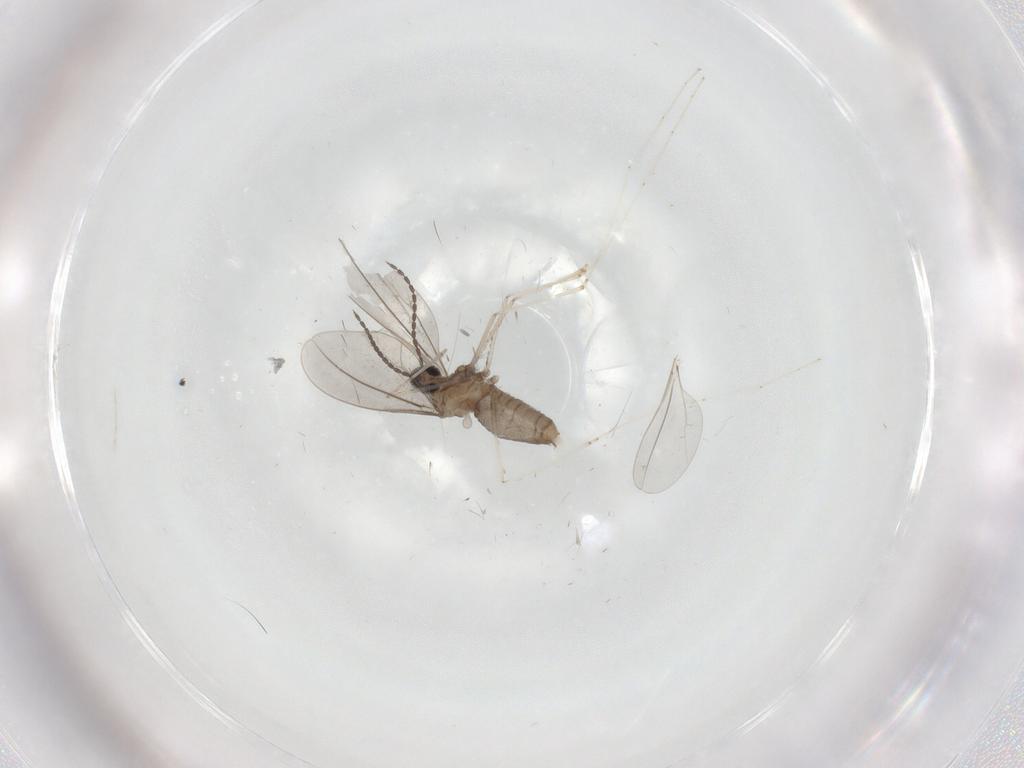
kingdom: Animalia
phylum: Arthropoda
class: Insecta
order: Diptera
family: Cecidomyiidae
